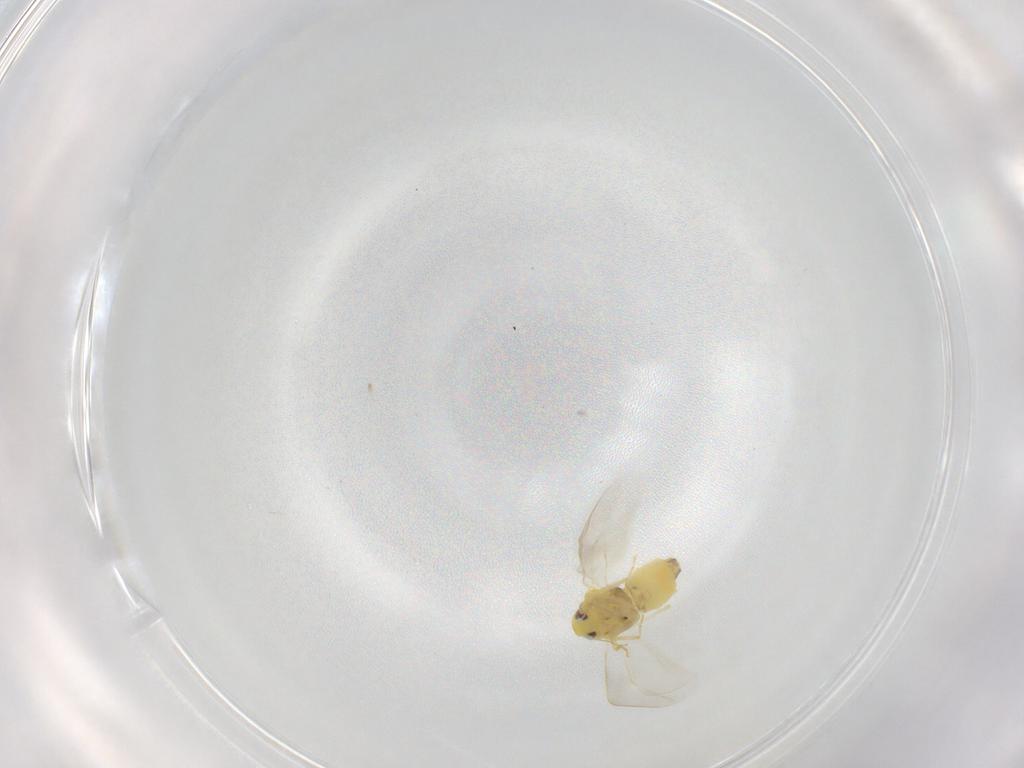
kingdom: Animalia
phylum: Arthropoda
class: Insecta
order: Hemiptera
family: Aleyrodidae
